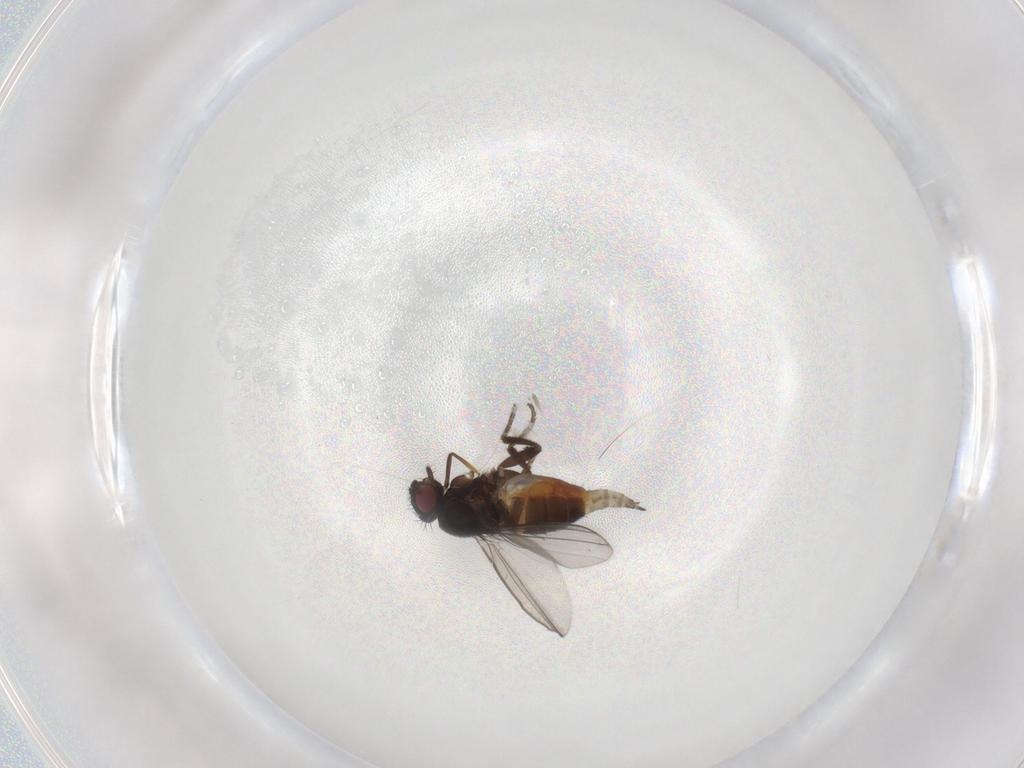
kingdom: Animalia
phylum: Arthropoda
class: Insecta
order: Diptera
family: Milichiidae
